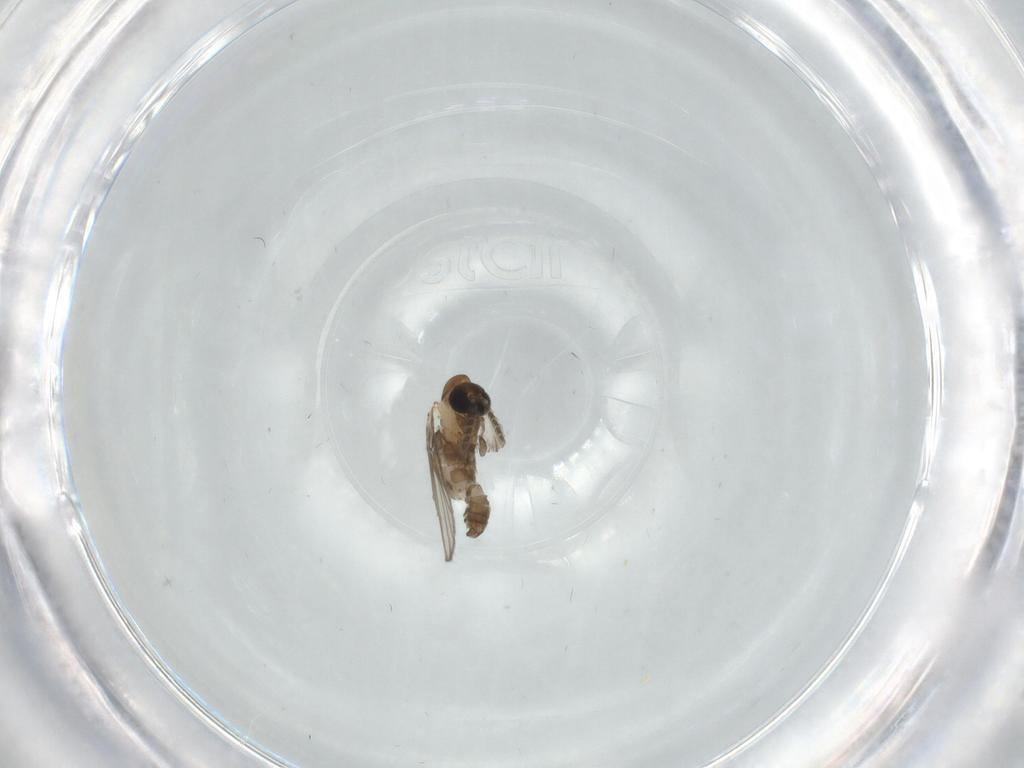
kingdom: Animalia
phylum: Arthropoda
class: Insecta
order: Diptera
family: Psychodidae
